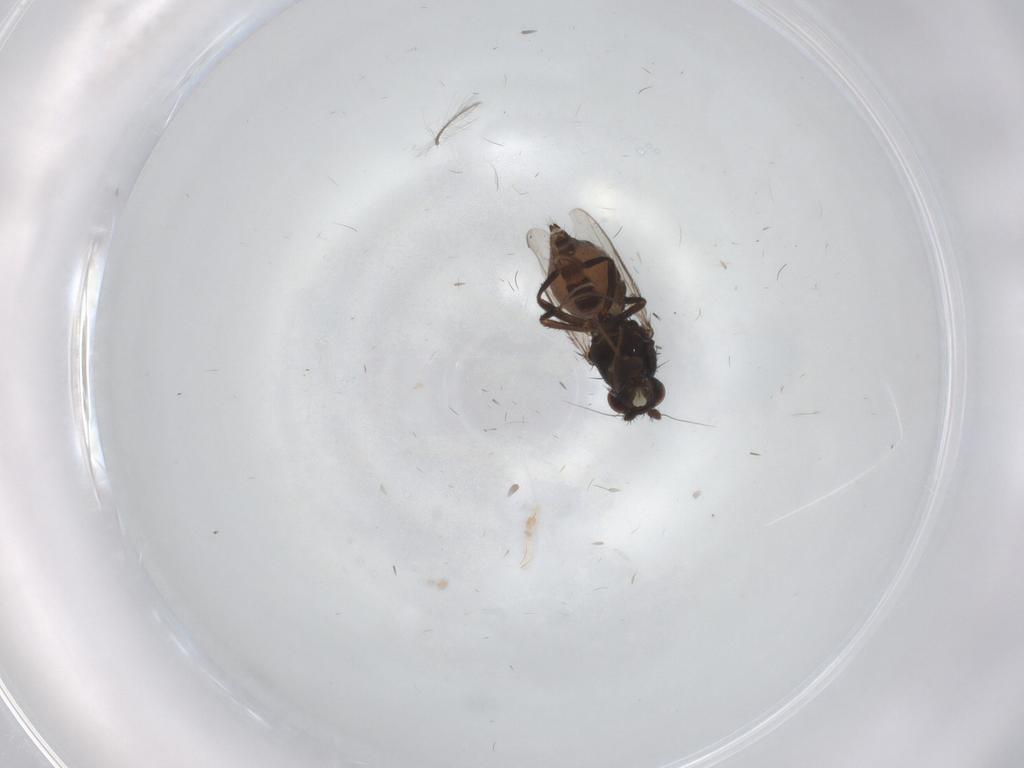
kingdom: Animalia
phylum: Arthropoda
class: Insecta
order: Diptera
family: Sphaeroceridae
